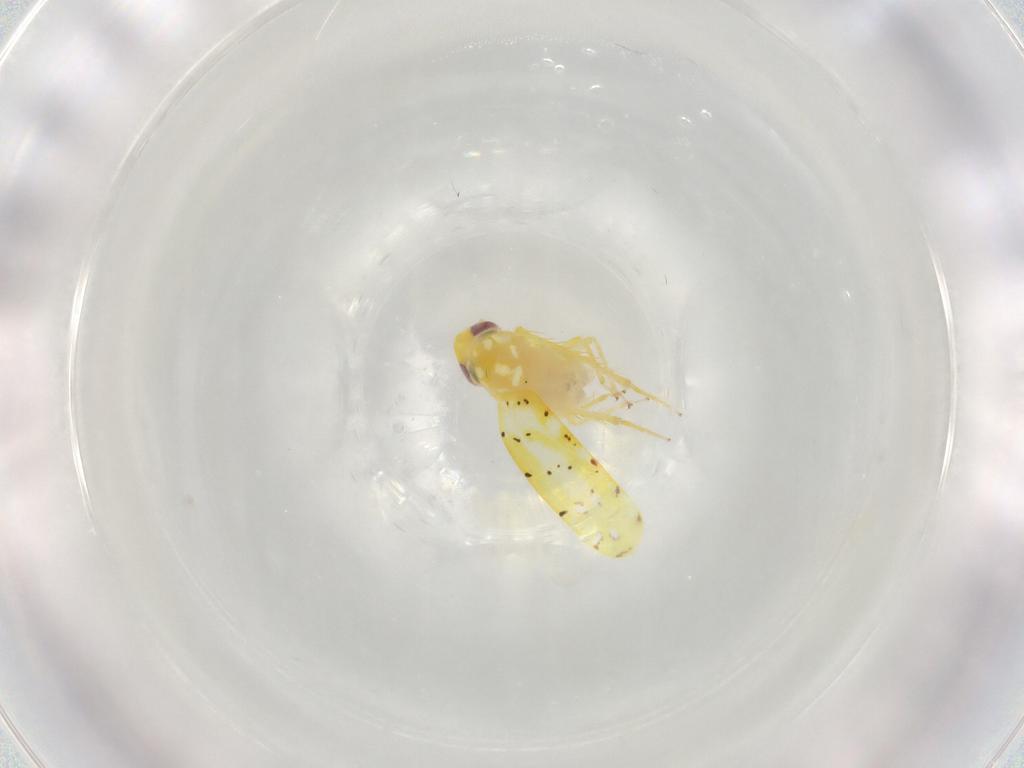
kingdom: Animalia
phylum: Arthropoda
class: Insecta
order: Hemiptera
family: Cicadellidae
